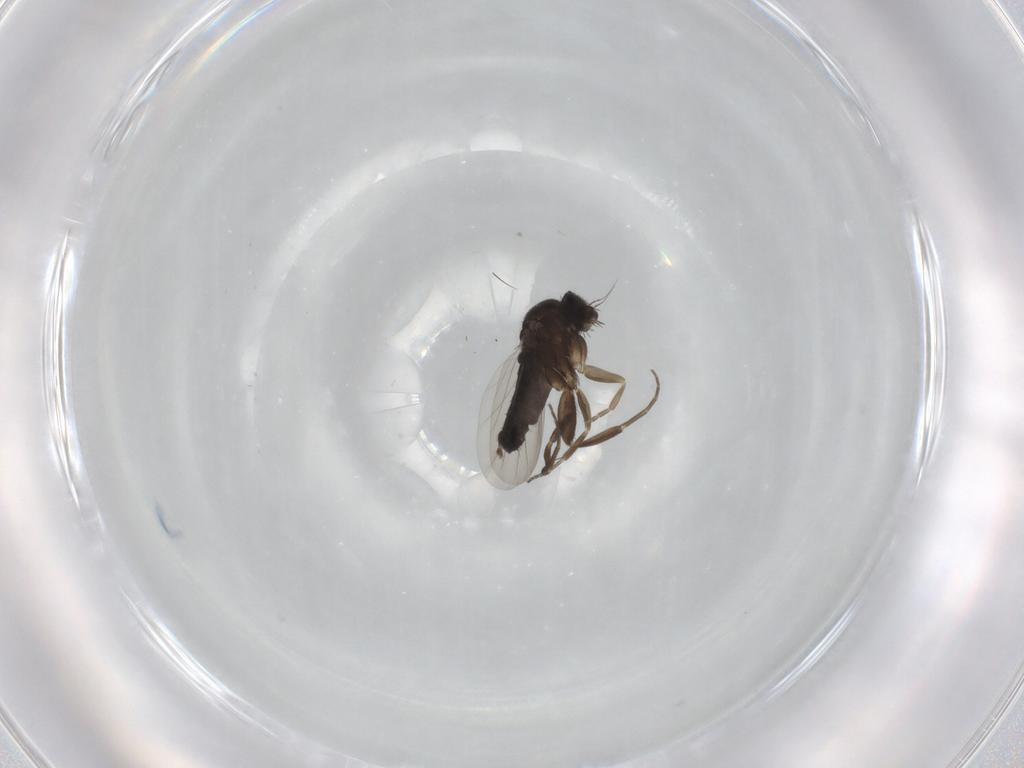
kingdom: Animalia
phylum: Arthropoda
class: Insecta
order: Diptera
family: Phoridae
